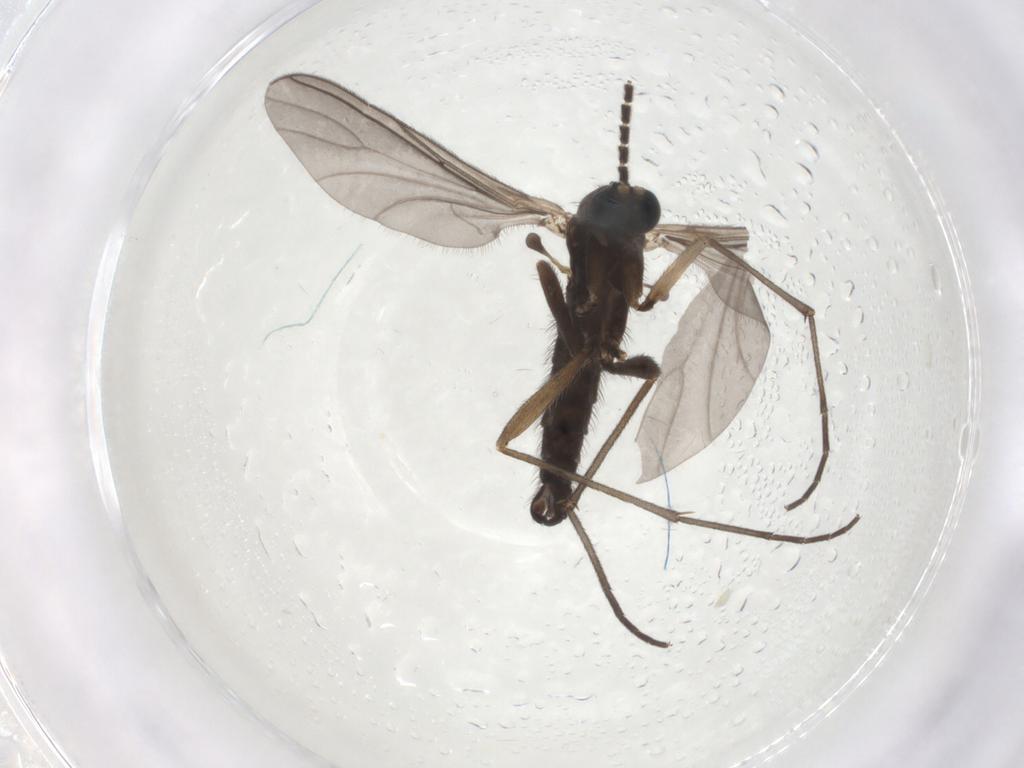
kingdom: Animalia
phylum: Arthropoda
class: Insecta
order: Diptera
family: Sciaridae
